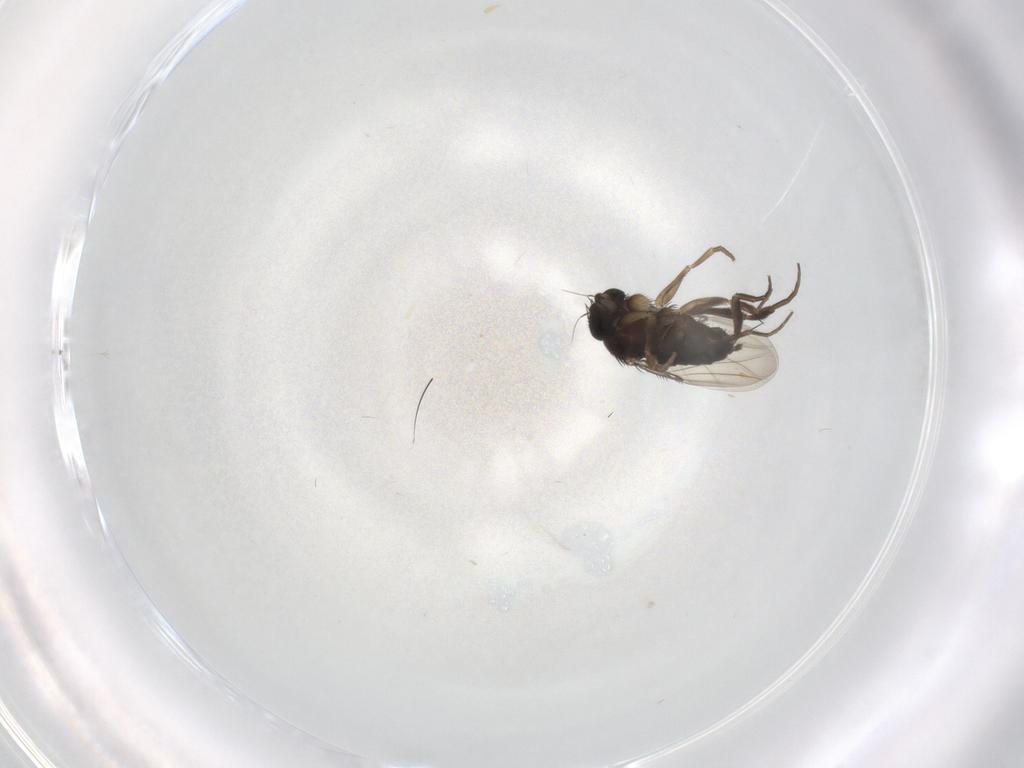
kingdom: Animalia
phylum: Arthropoda
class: Insecta
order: Diptera
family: Phoridae
